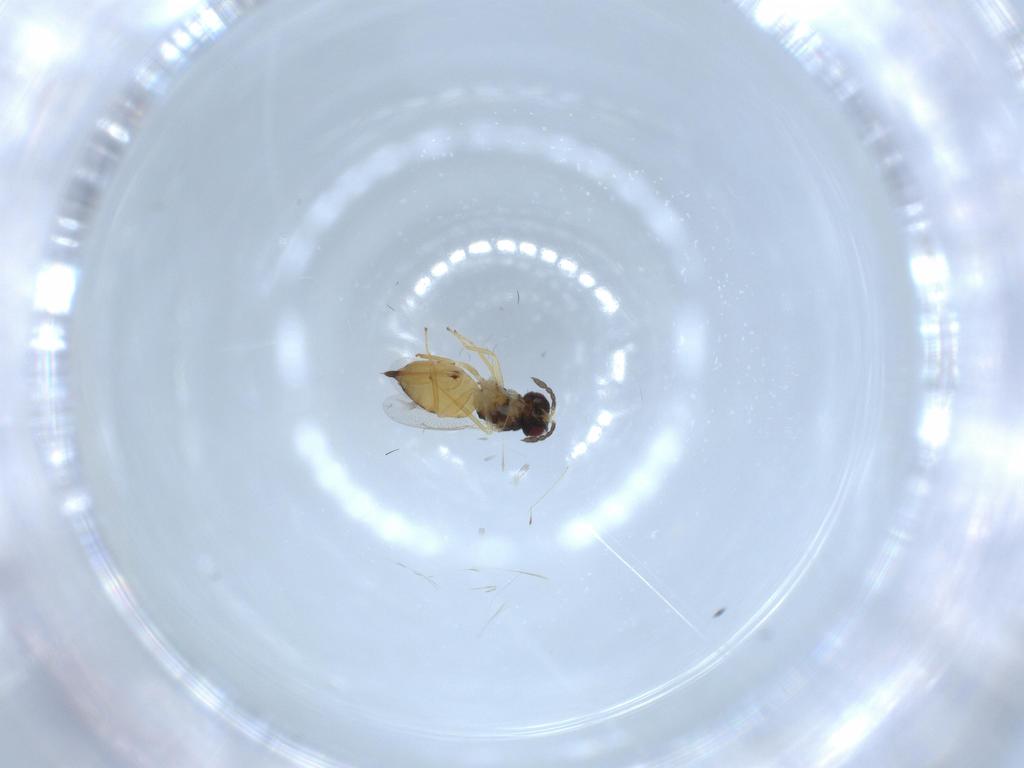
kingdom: Animalia
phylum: Arthropoda
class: Insecta
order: Hymenoptera
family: Eulophidae
